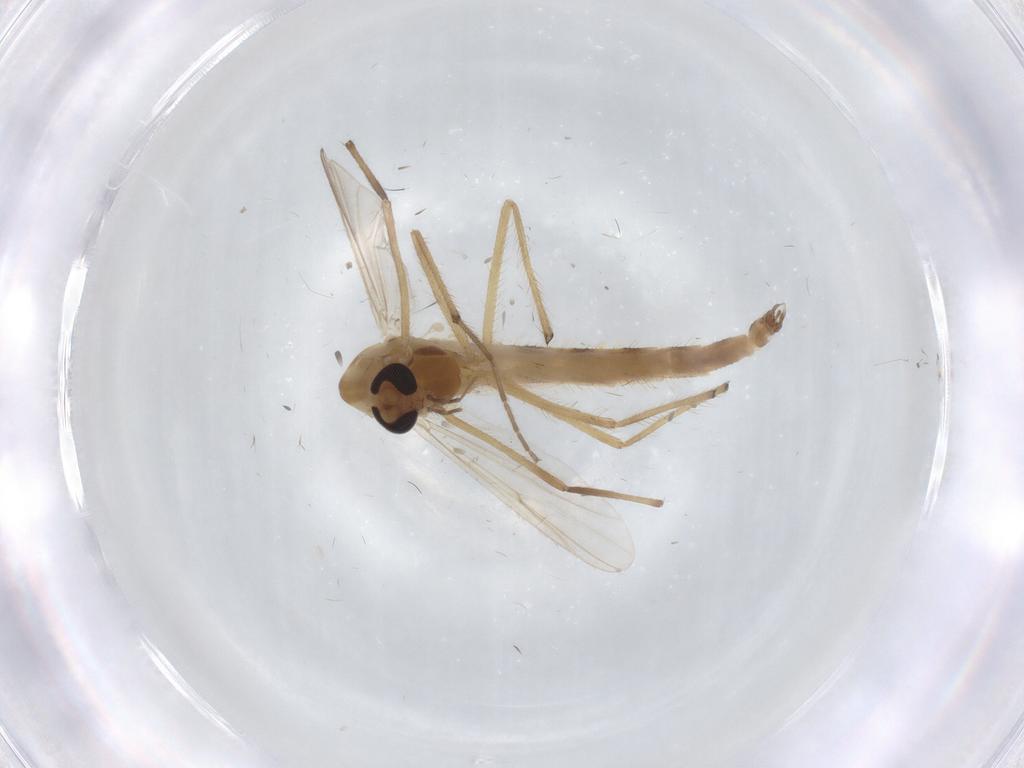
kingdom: Animalia
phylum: Arthropoda
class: Insecta
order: Diptera
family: Chironomidae
